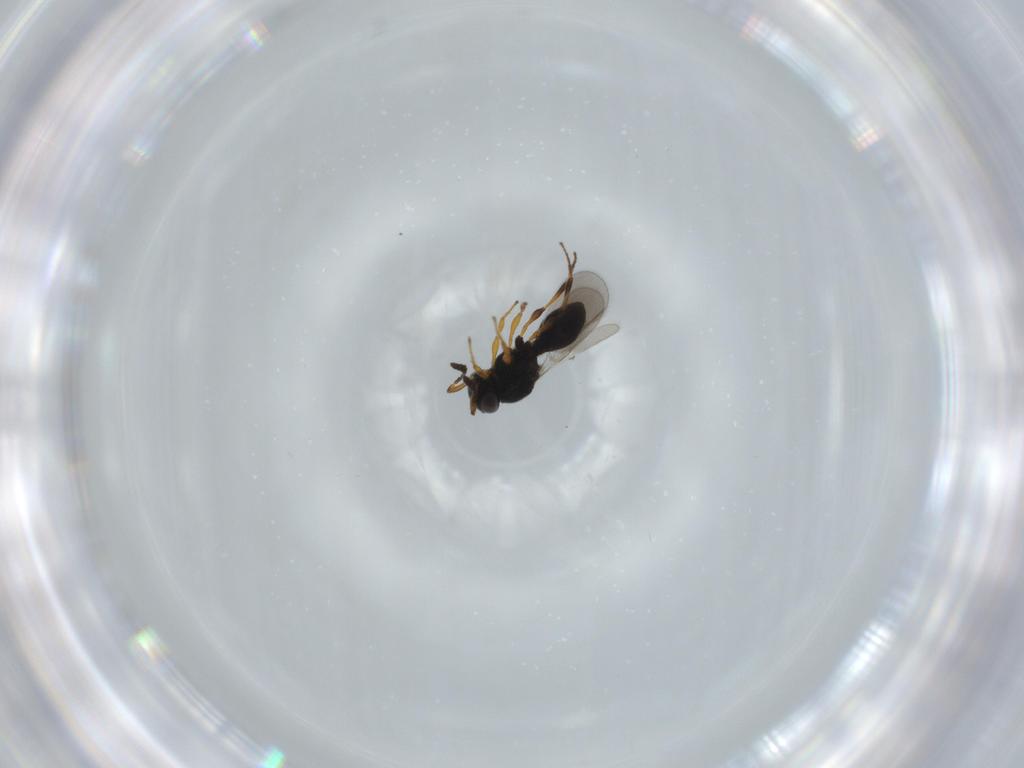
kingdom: Animalia
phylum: Arthropoda
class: Insecta
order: Hymenoptera
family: Platygastridae
